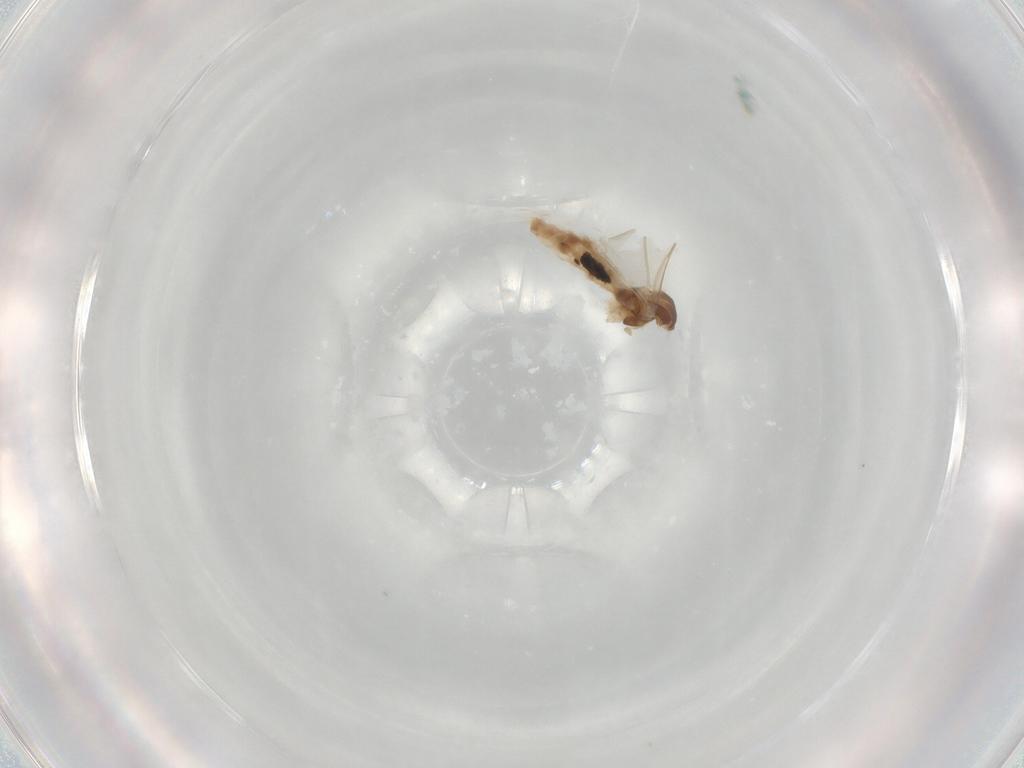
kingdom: Animalia
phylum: Arthropoda
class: Insecta
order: Diptera
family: Cecidomyiidae
